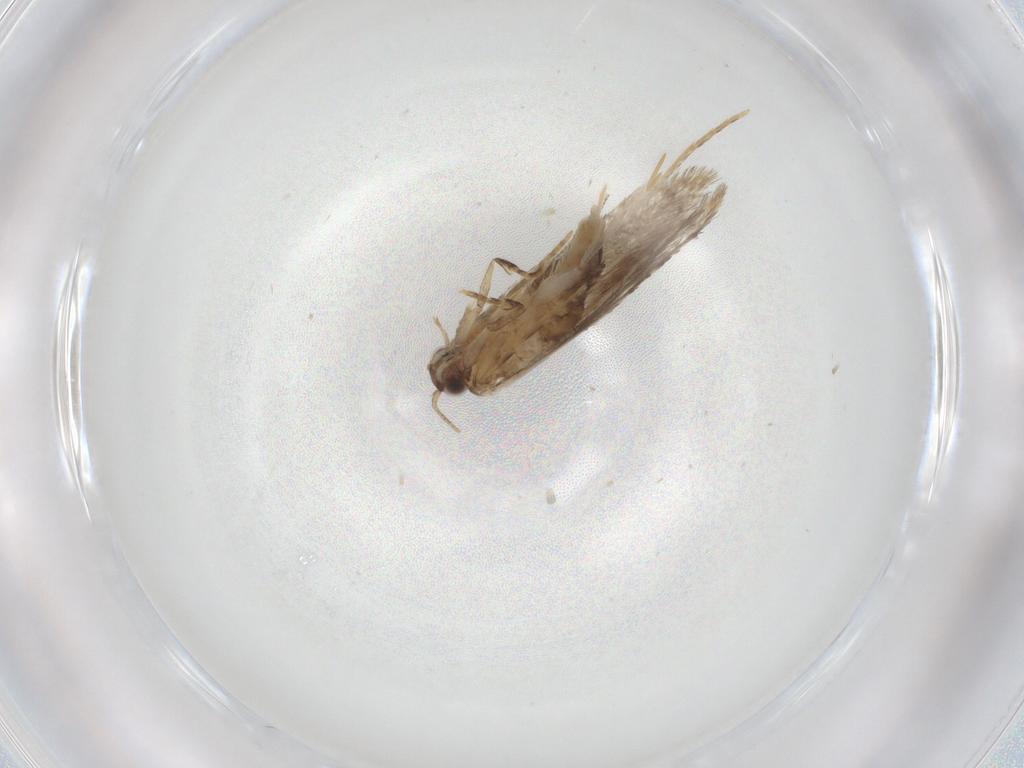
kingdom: Animalia
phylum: Arthropoda
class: Insecta
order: Lepidoptera
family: Tineidae
